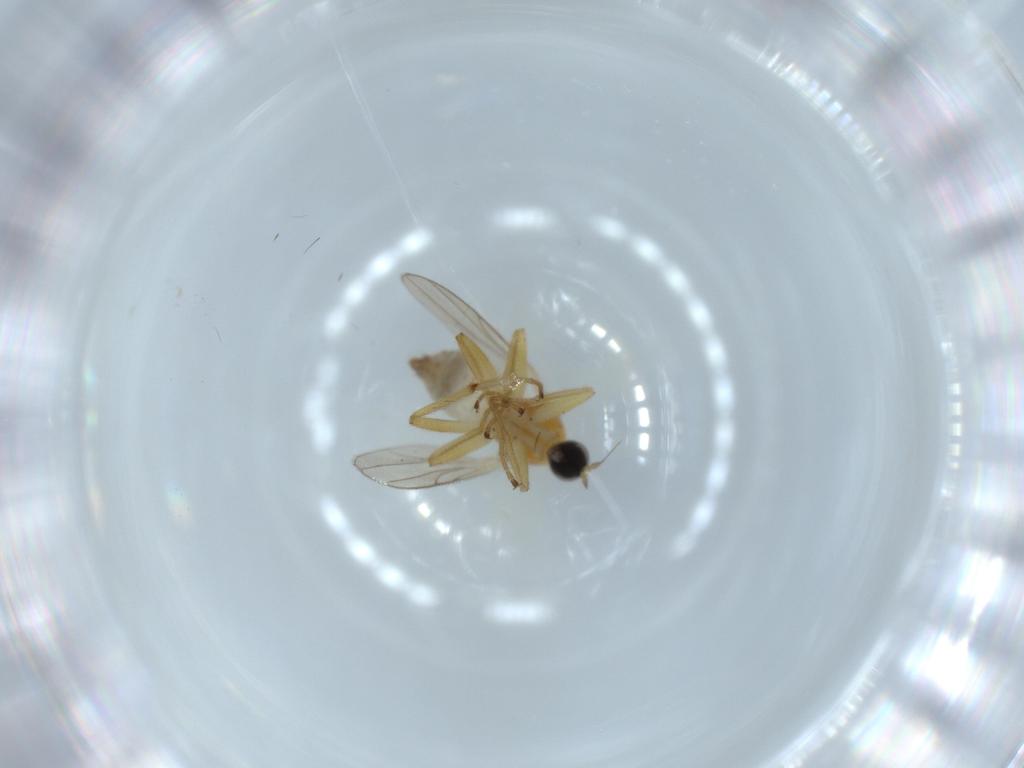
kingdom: Animalia
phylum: Arthropoda
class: Insecta
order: Diptera
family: Hybotidae
